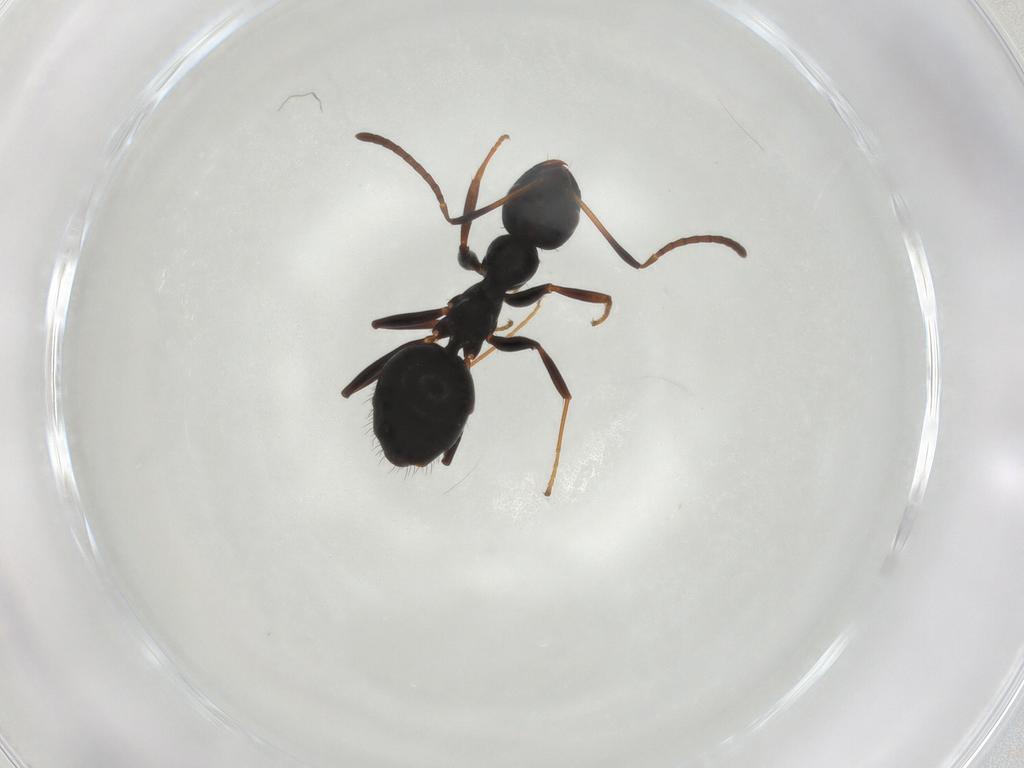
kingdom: Animalia
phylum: Arthropoda
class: Insecta
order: Hymenoptera
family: Formicidae
